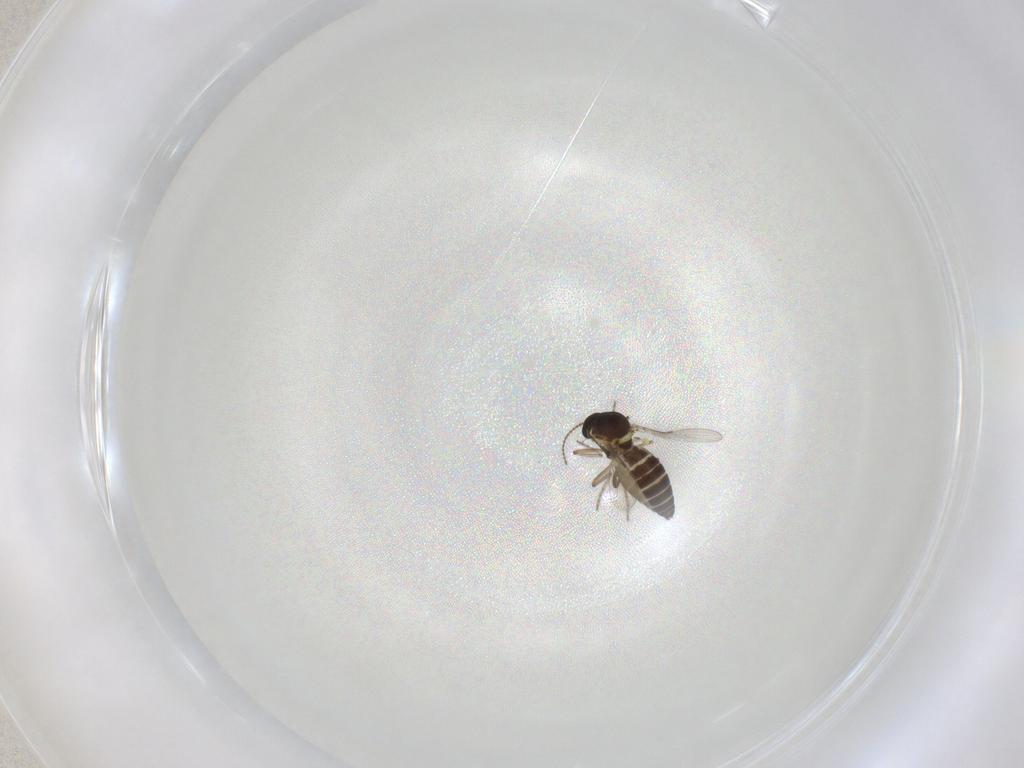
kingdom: Animalia
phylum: Arthropoda
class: Insecta
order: Diptera
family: Ceratopogonidae
